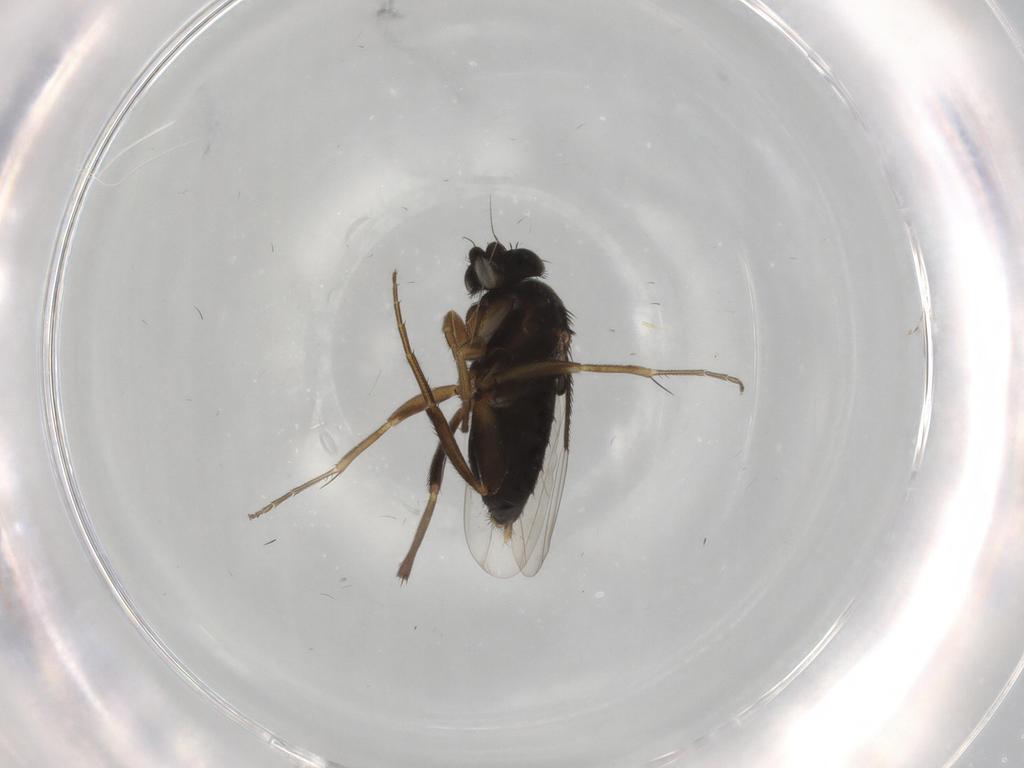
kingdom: Animalia
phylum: Arthropoda
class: Insecta
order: Diptera
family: Phoridae
